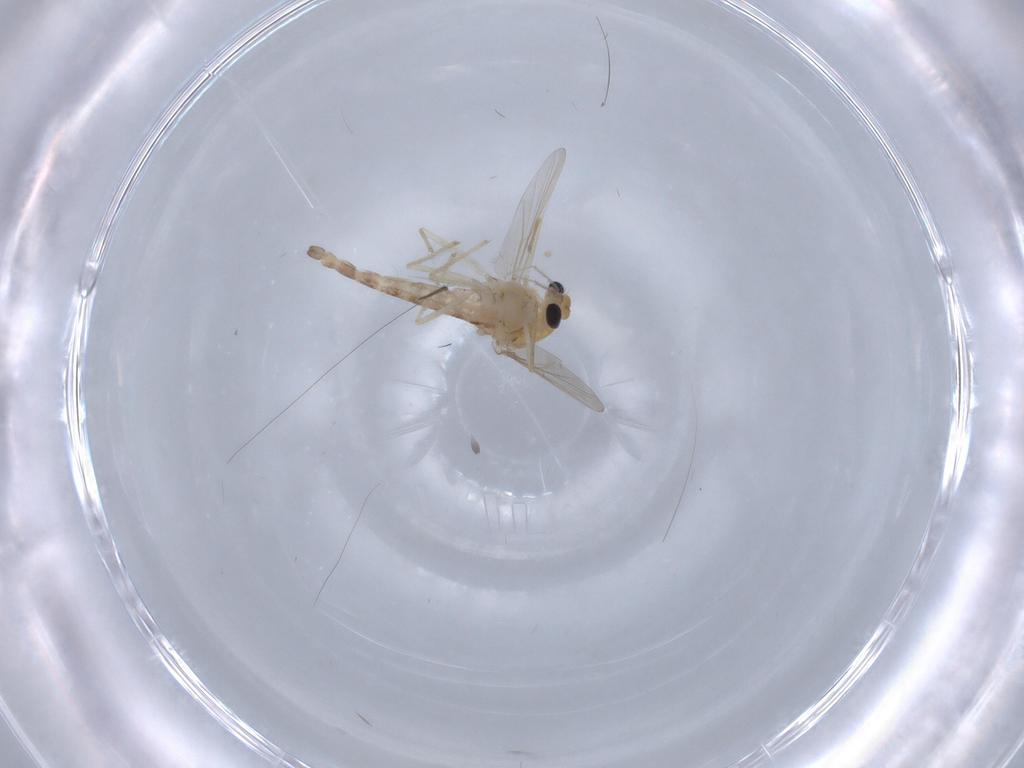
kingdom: Animalia
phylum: Arthropoda
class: Insecta
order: Diptera
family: Chironomidae
